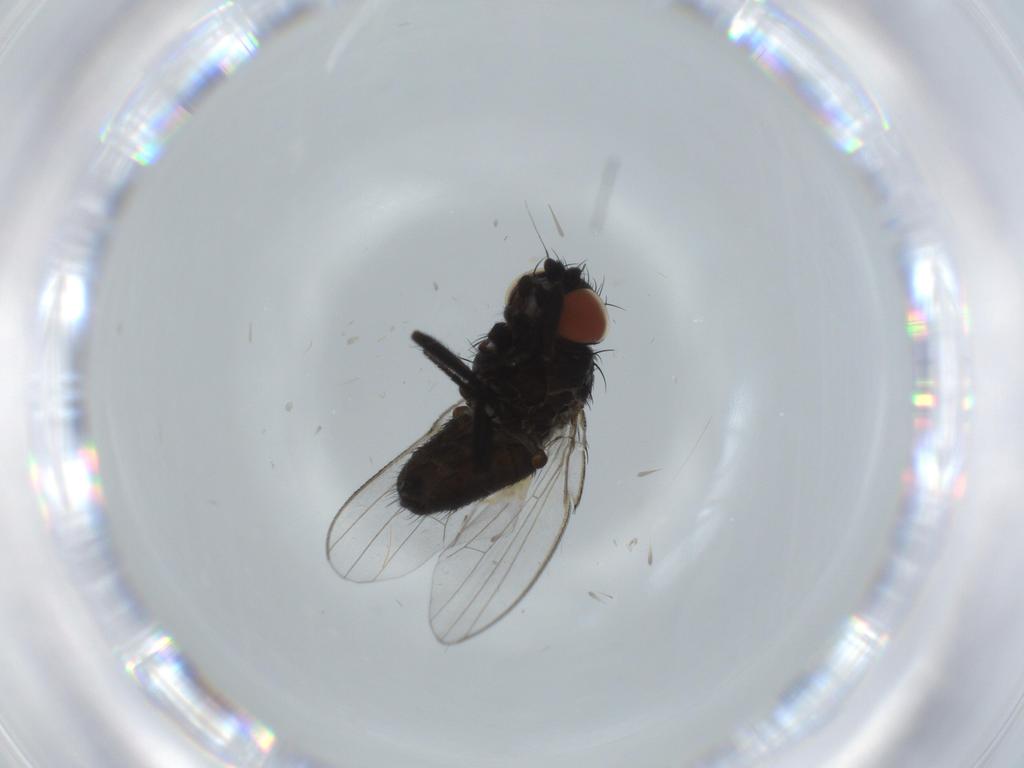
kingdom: Animalia
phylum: Arthropoda
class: Insecta
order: Diptera
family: Milichiidae
